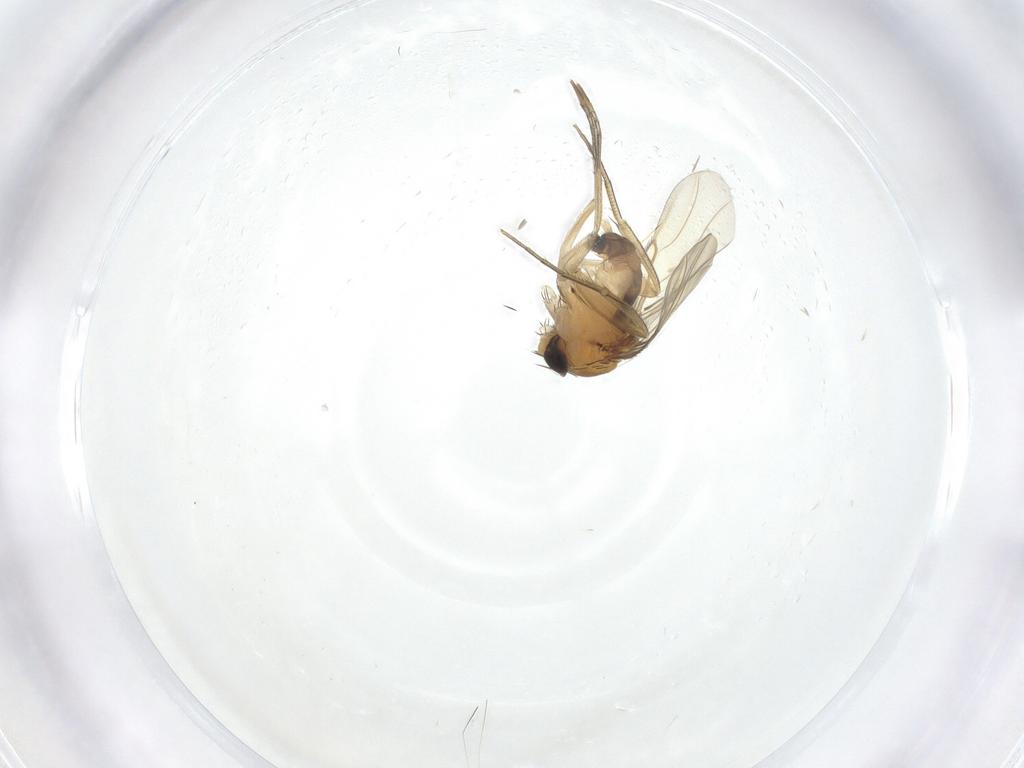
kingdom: Animalia
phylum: Arthropoda
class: Insecta
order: Diptera
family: Phoridae
